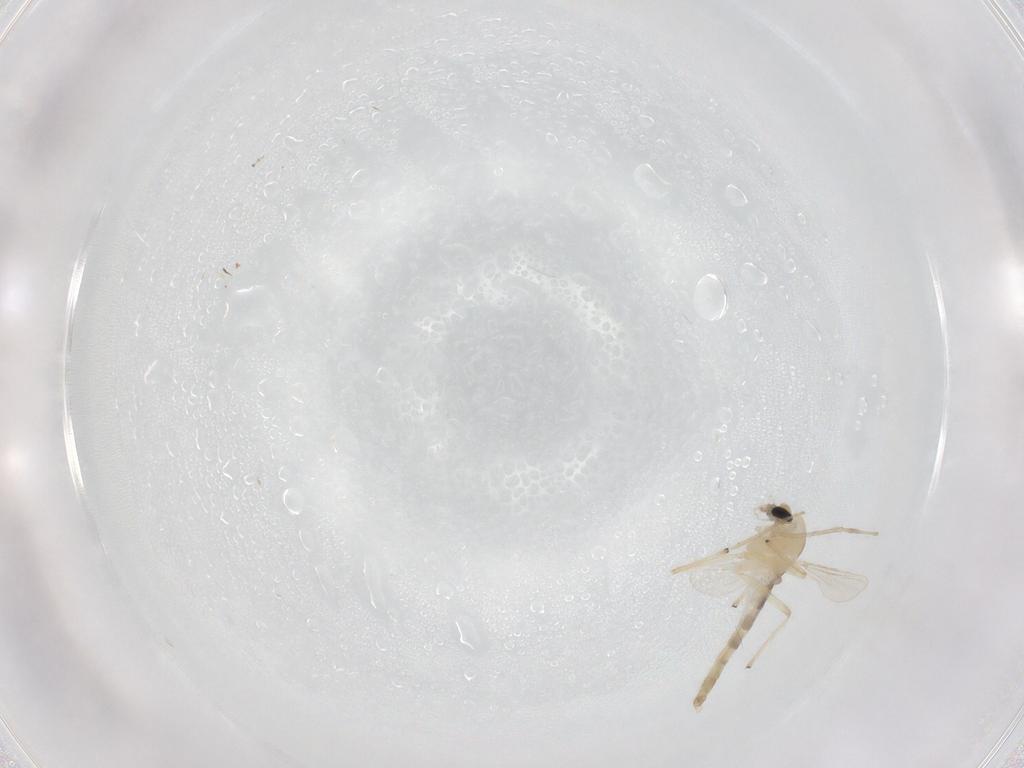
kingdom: Animalia
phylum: Arthropoda
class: Insecta
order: Diptera
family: Chironomidae
